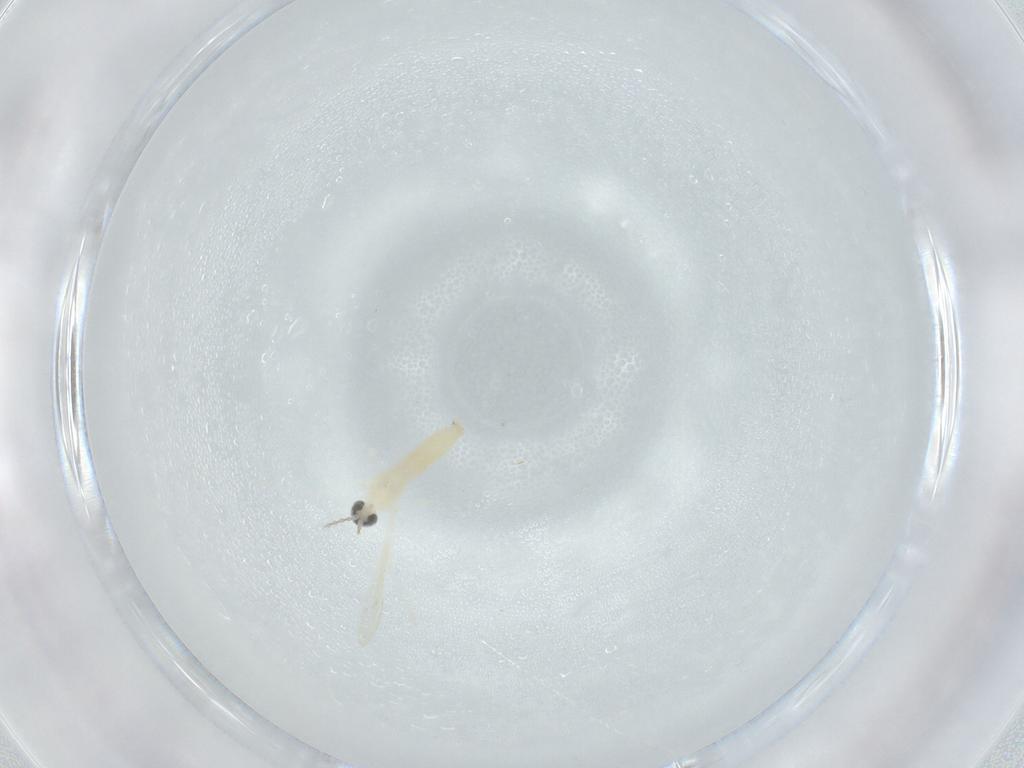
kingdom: Animalia
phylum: Arthropoda
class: Insecta
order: Diptera
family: Cecidomyiidae
